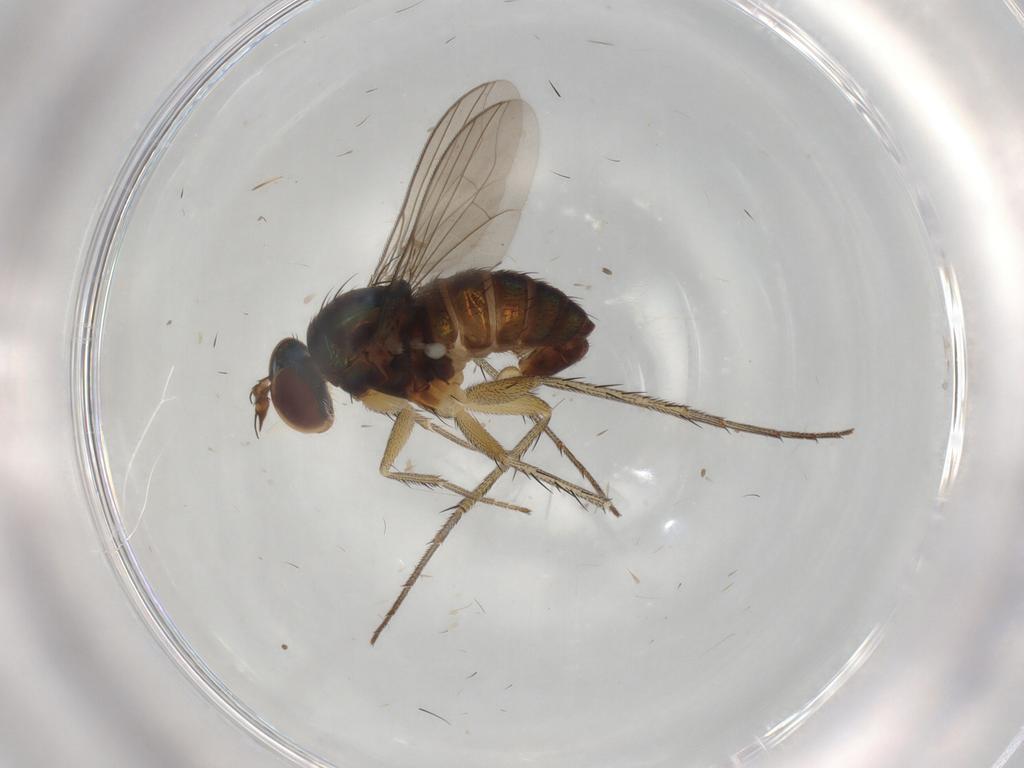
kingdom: Animalia
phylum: Arthropoda
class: Insecta
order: Diptera
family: Dolichopodidae
